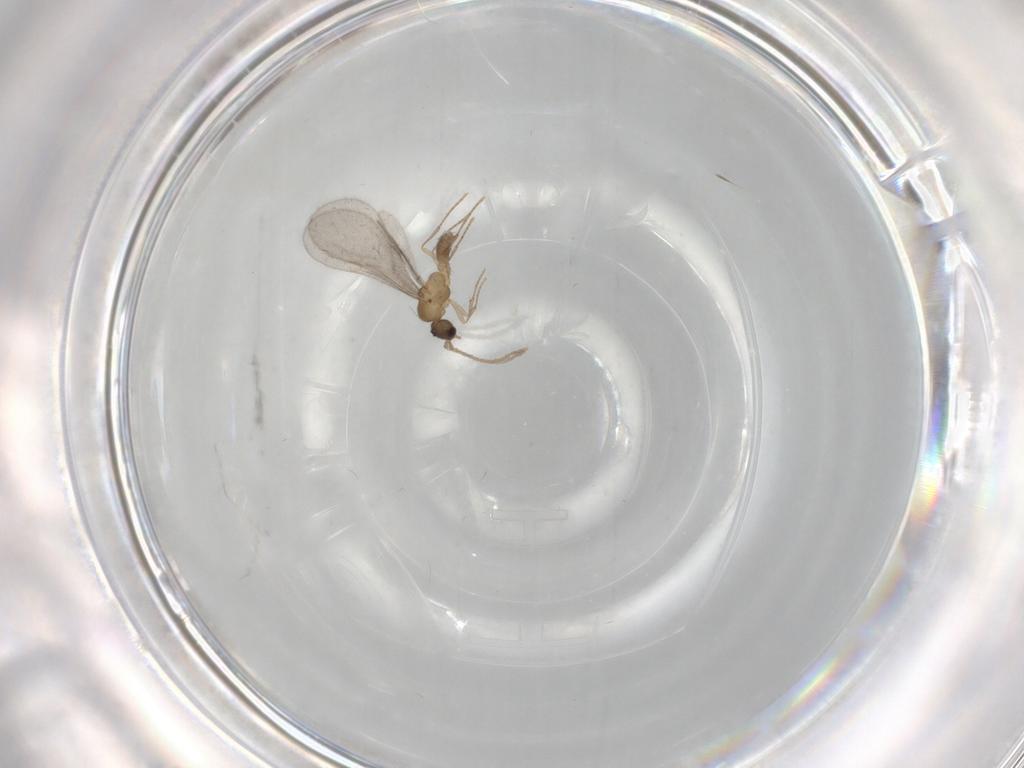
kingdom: Animalia
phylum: Arthropoda
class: Insecta
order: Hymenoptera
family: Formicidae
